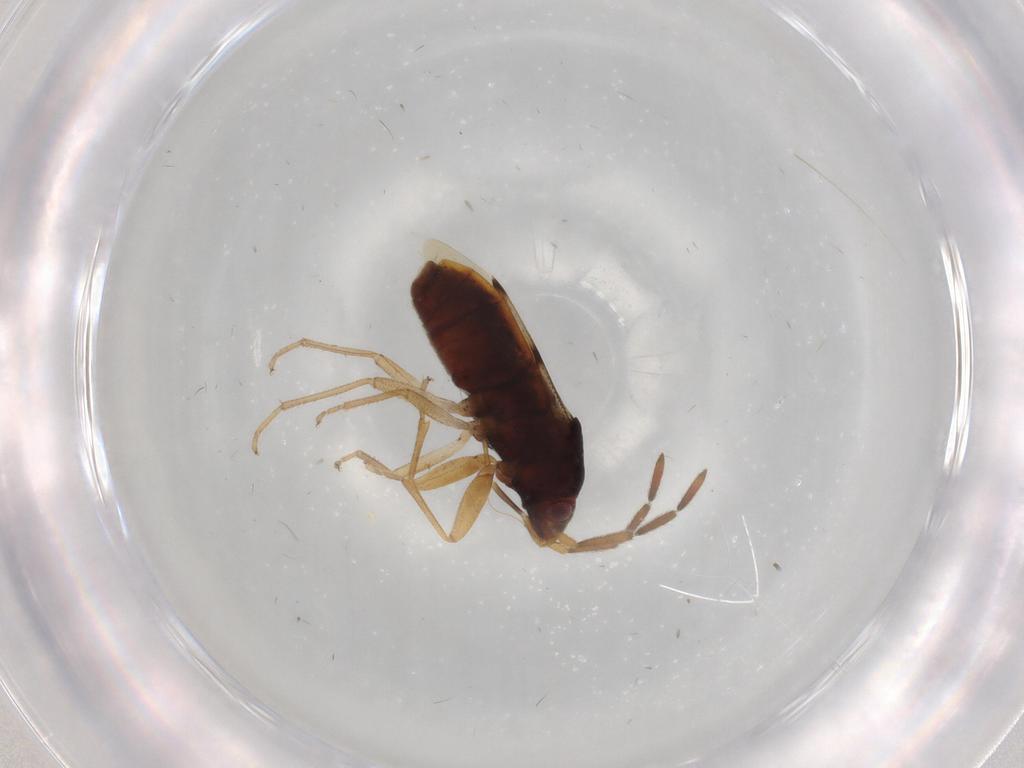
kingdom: Animalia
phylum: Arthropoda
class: Insecta
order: Hemiptera
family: Rhyparochromidae
